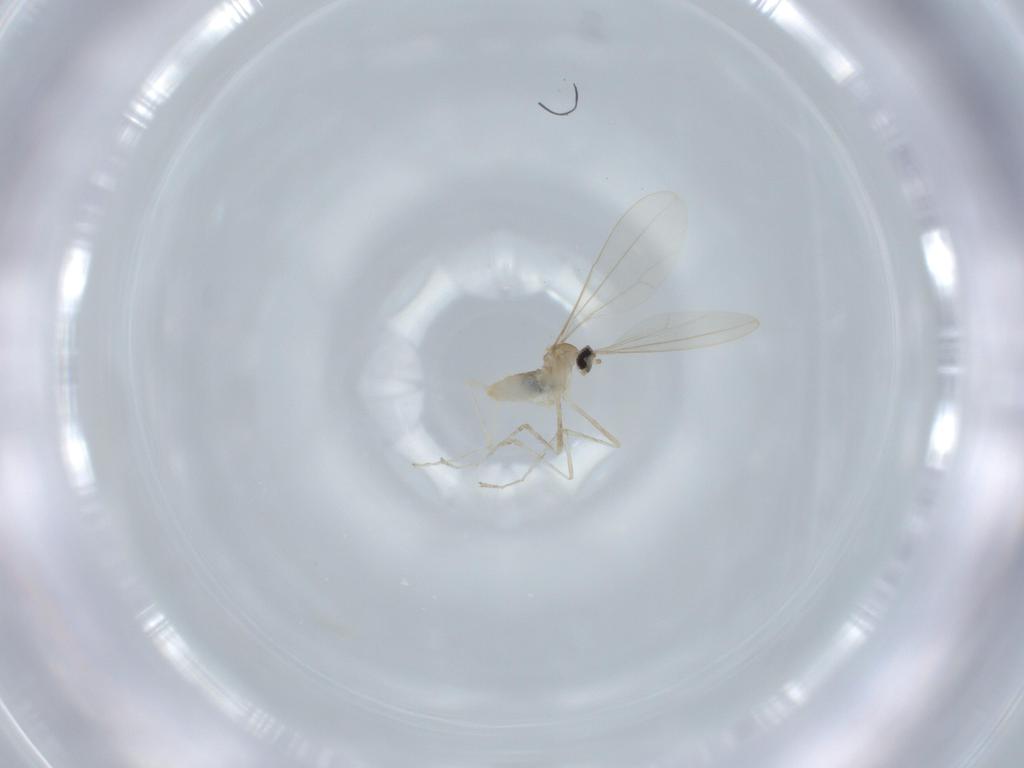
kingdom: Animalia
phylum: Arthropoda
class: Insecta
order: Diptera
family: Cecidomyiidae
